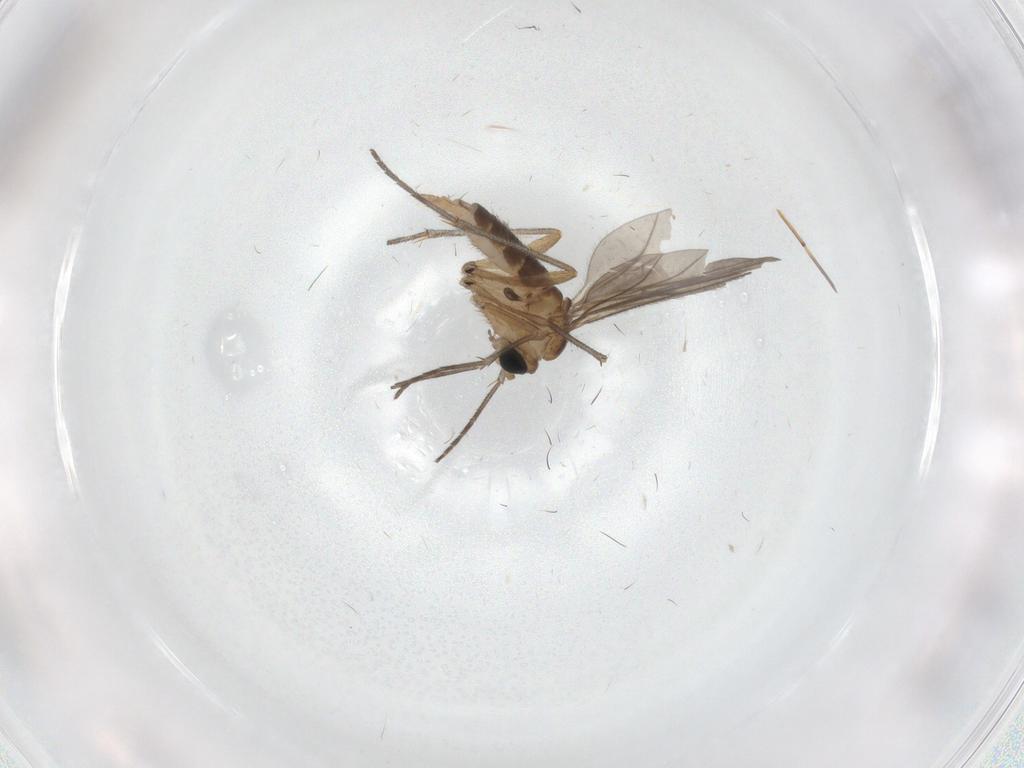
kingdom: Animalia
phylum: Arthropoda
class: Insecta
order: Diptera
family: Sciaridae
